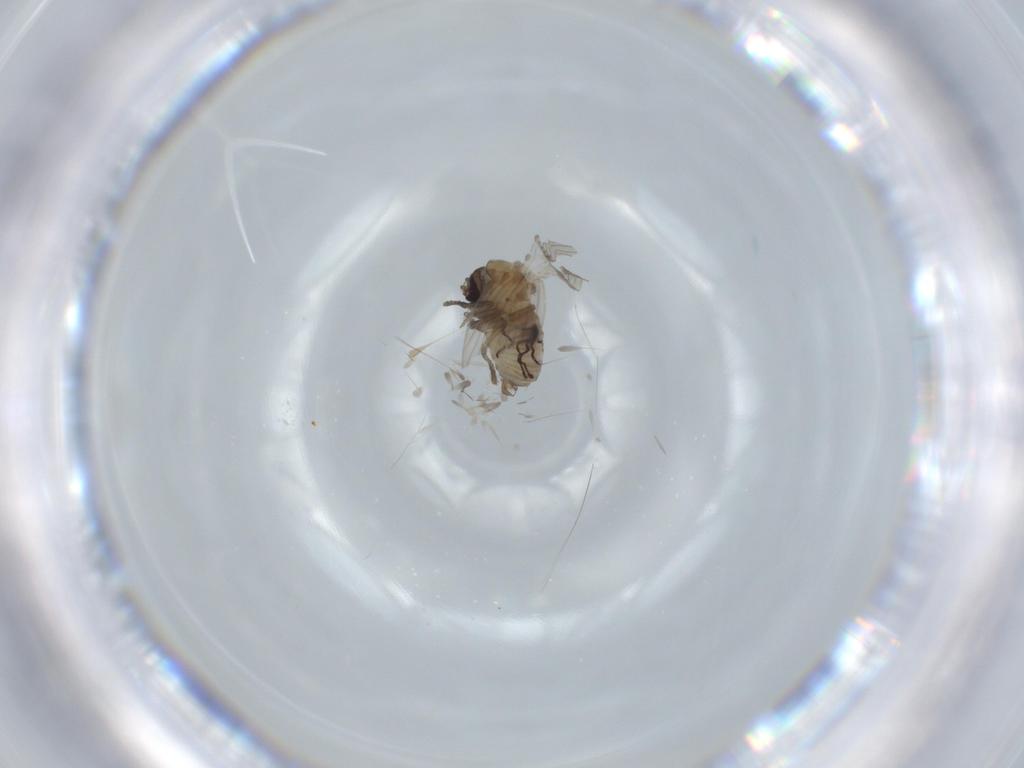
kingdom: Animalia
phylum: Arthropoda
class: Insecta
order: Diptera
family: Psychodidae
